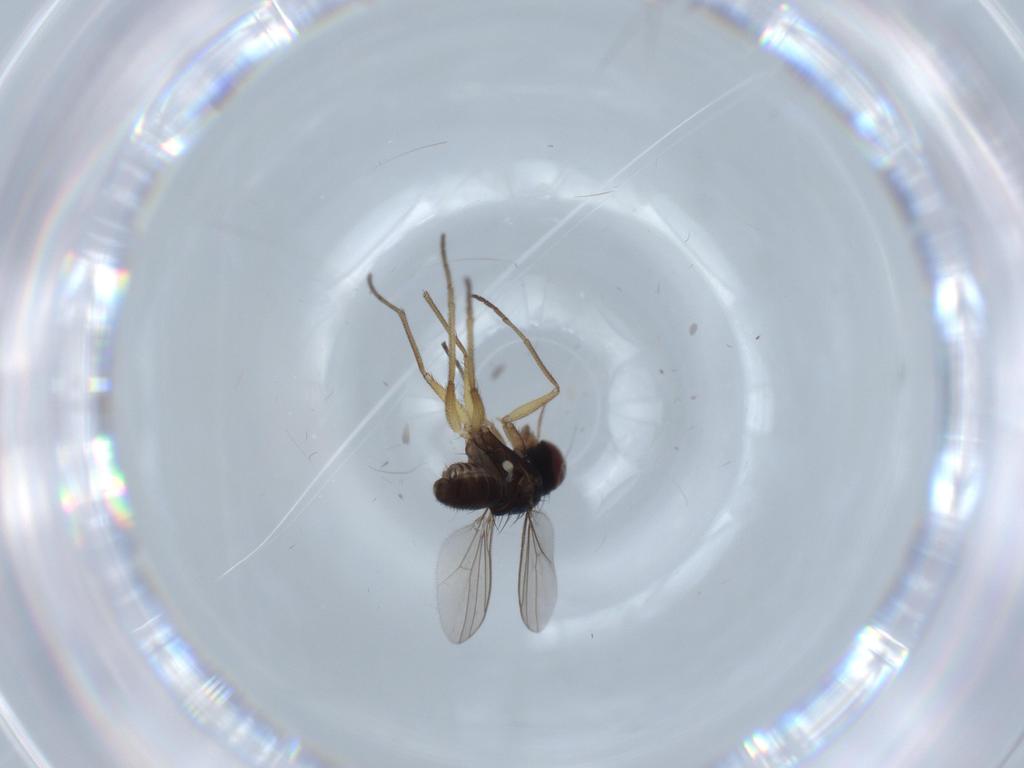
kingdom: Animalia
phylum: Arthropoda
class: Insecta
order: Diptera
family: Dolichopodidae
